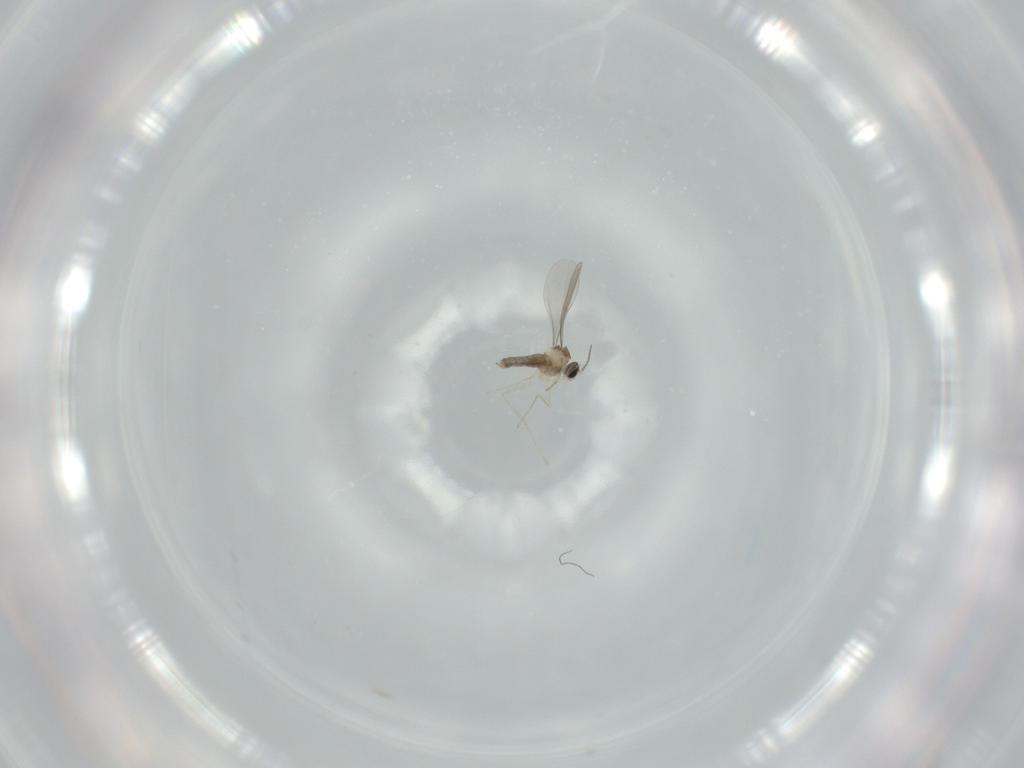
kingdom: Animalia
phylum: Arthropoda
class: Insecta
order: Diptera
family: Cecidomyiidae
